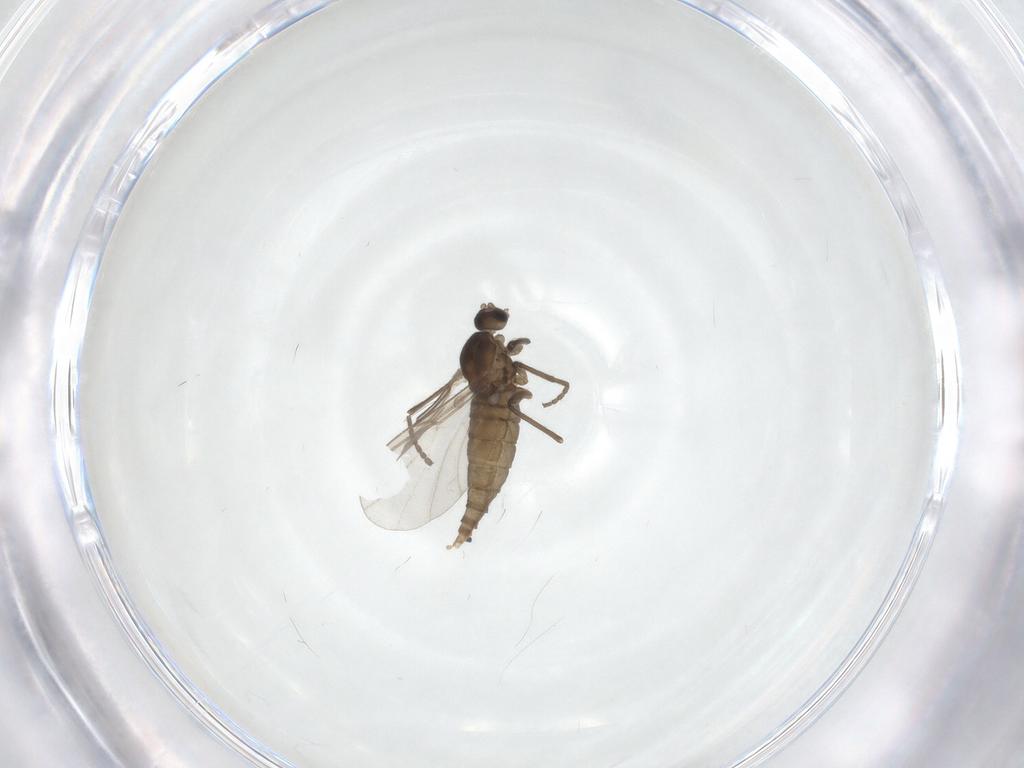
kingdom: Animalia
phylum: Arthropoda
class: Insecta
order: Diptera
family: Cecidomyiidae
